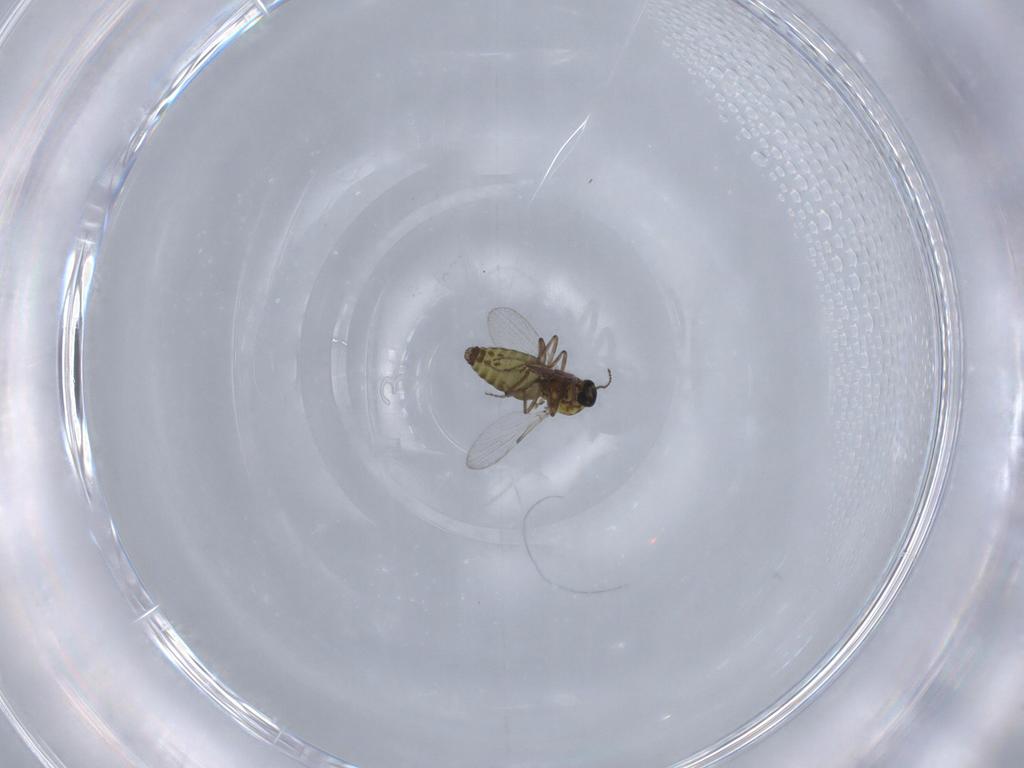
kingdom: Animalia
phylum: Arthropoda
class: Insecta
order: Diptera
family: Ceratopogonidae
